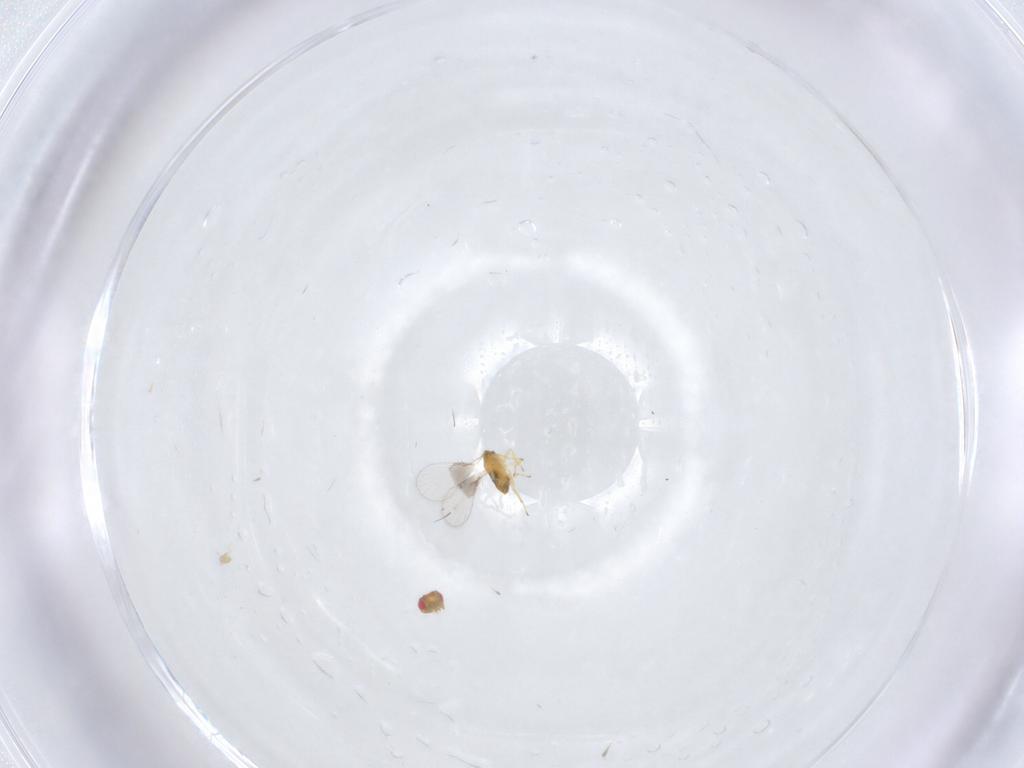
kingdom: Animalia
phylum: Arthropoda
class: Insecta
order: Hymenoptera
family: Trichogrammatidae
